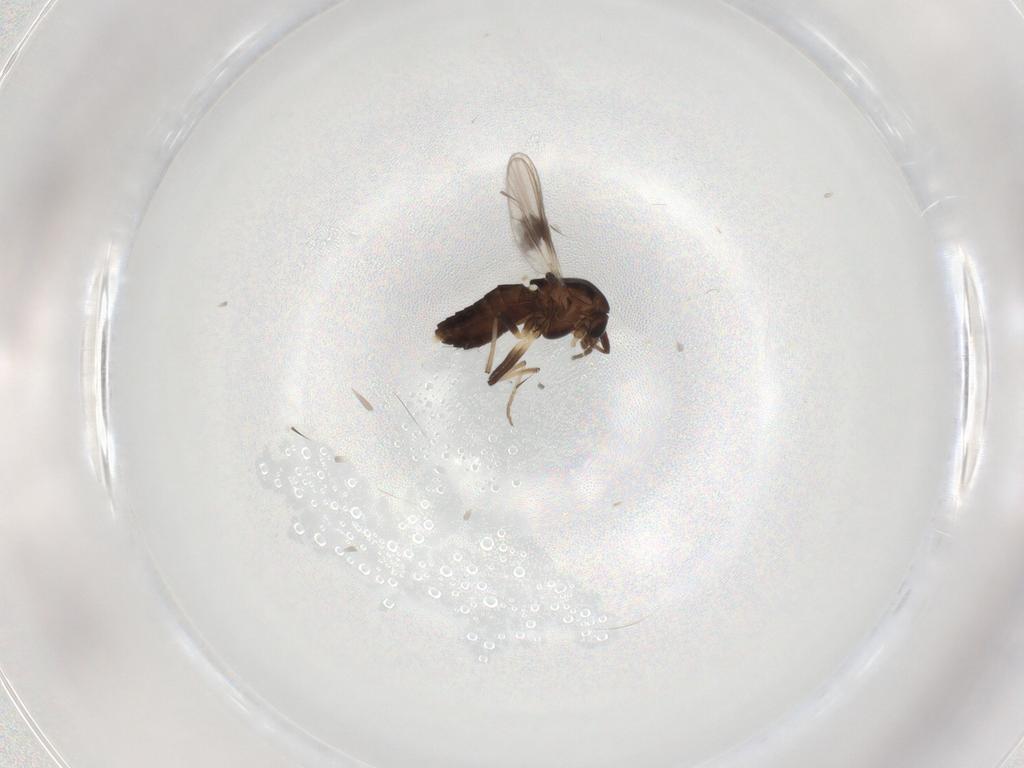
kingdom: Animalia
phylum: Arthropoda
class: Insecta
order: Diptera
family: Chironomidae
